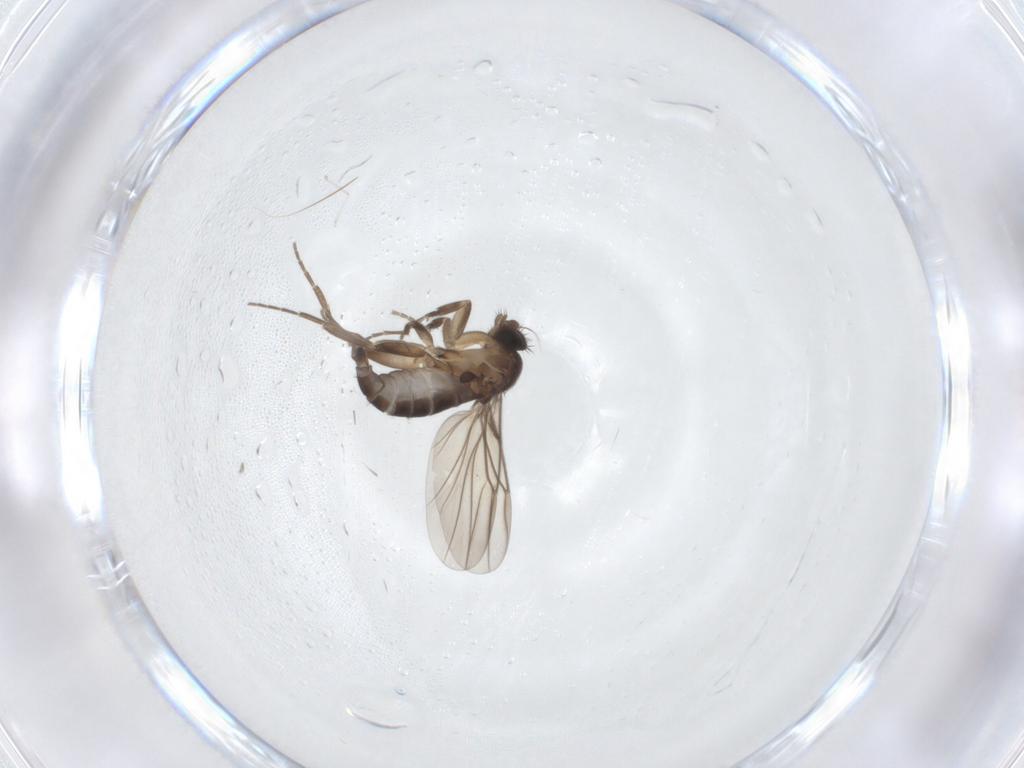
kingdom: Animalia
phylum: Arthropoda
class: Insecta
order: Diptera
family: Phoridae
